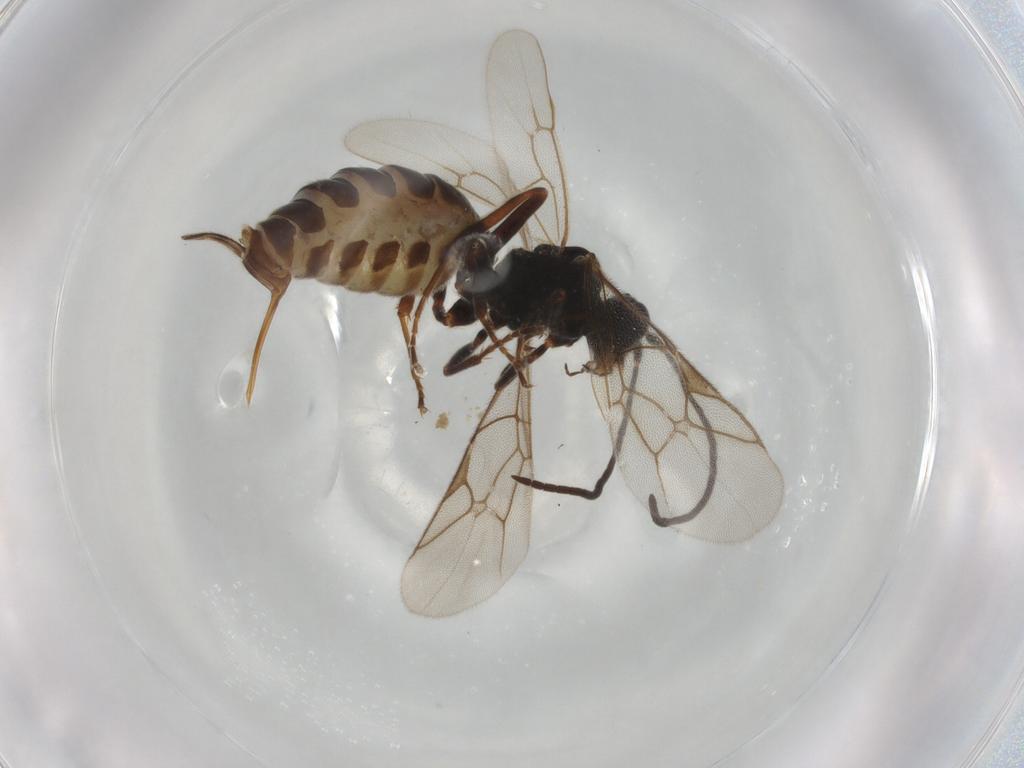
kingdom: Animalia
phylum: Arthropoda
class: Insecta
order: Hymenoptera
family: Ichneumonidae
